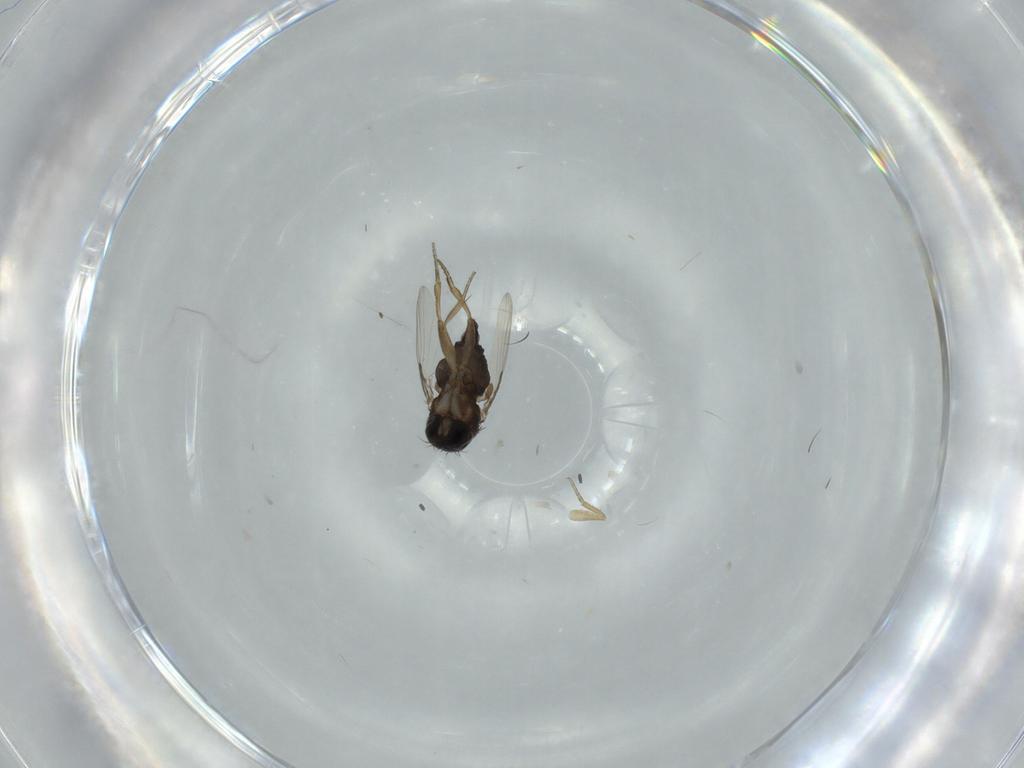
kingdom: Animalia
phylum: Arthropoda
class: Insecta
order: Diptera
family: Phoridae
